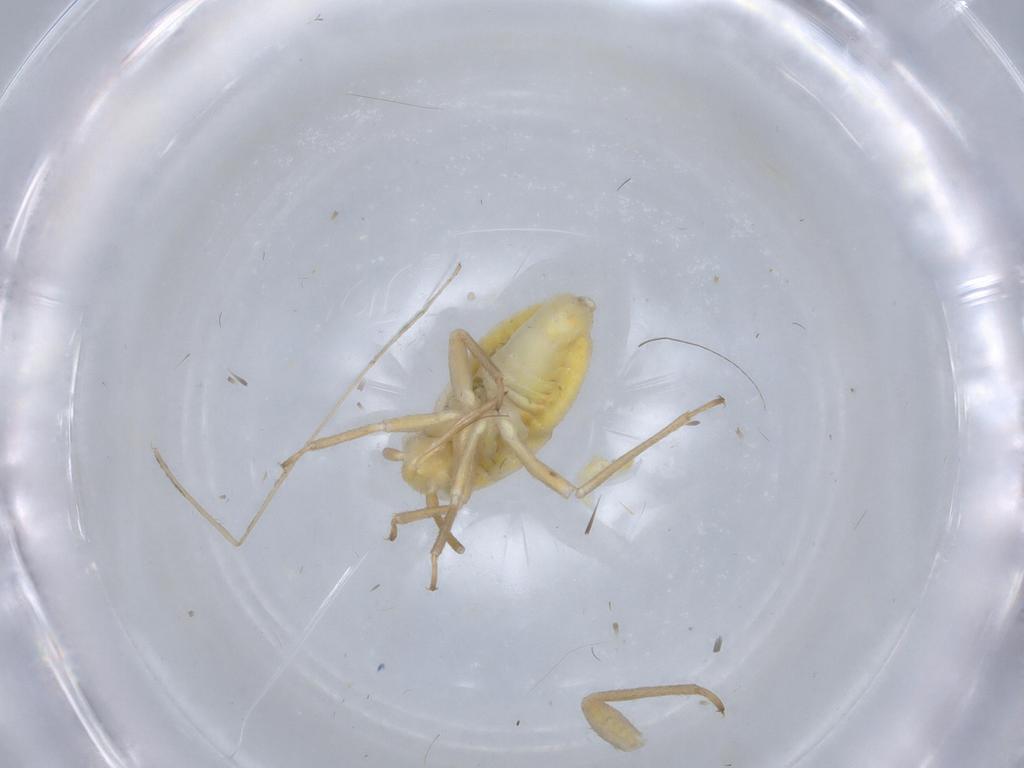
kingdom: Animalia
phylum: Arthropoda
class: Insecta
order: Hemiptera
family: Miridae
